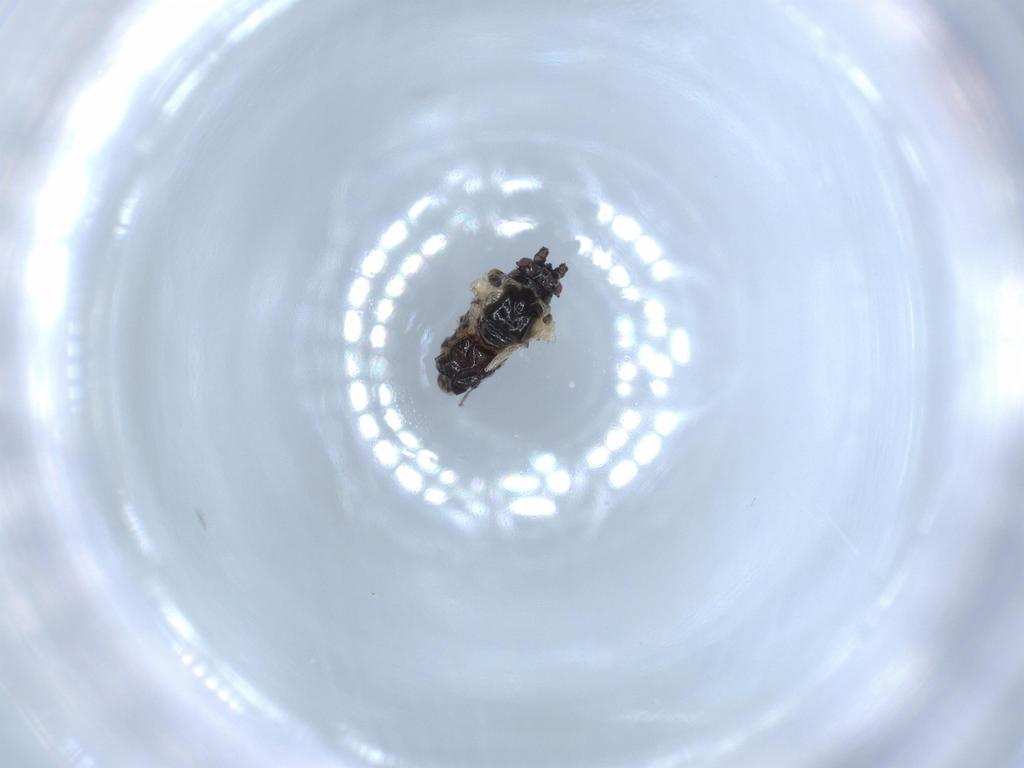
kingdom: Animalia
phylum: Arthropoda
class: Insecta
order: Hemiptera
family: Aphididae
